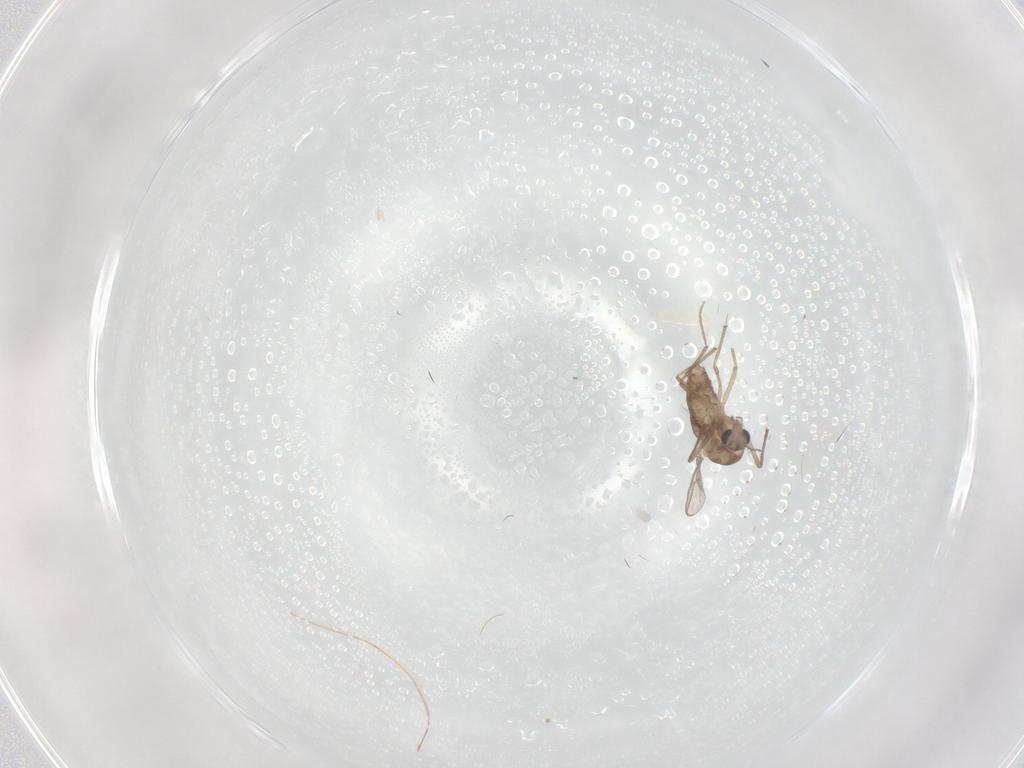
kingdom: Animalia
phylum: Arthropoda
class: Insecta
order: Diptera
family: Chironomidae
